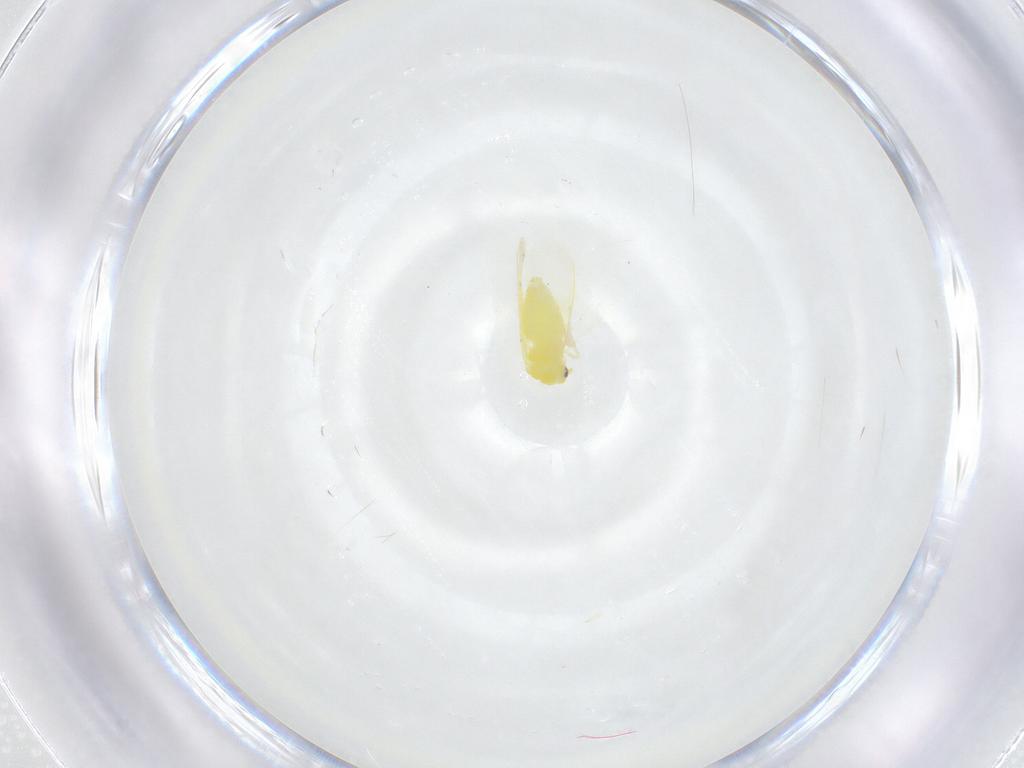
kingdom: Animalia
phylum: Arthropoda
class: Insecta
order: Hemiptera
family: Aleyrodidae
